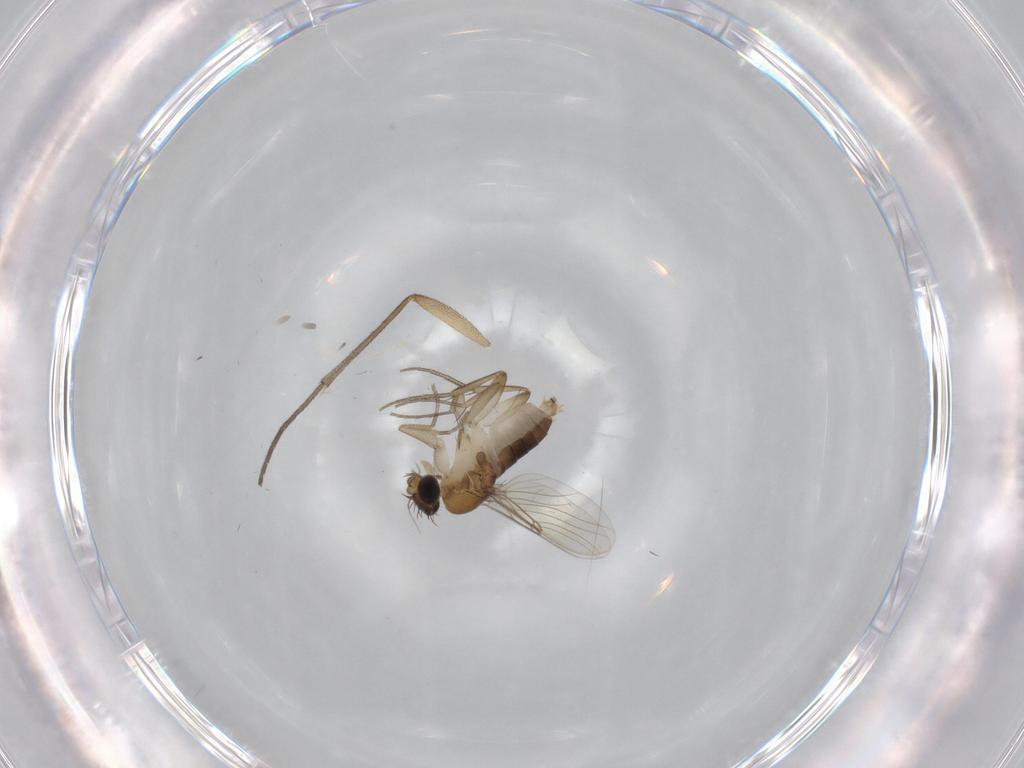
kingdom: Animalia
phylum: Arthropoda
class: Insecta
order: Diptera
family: Phoridae
